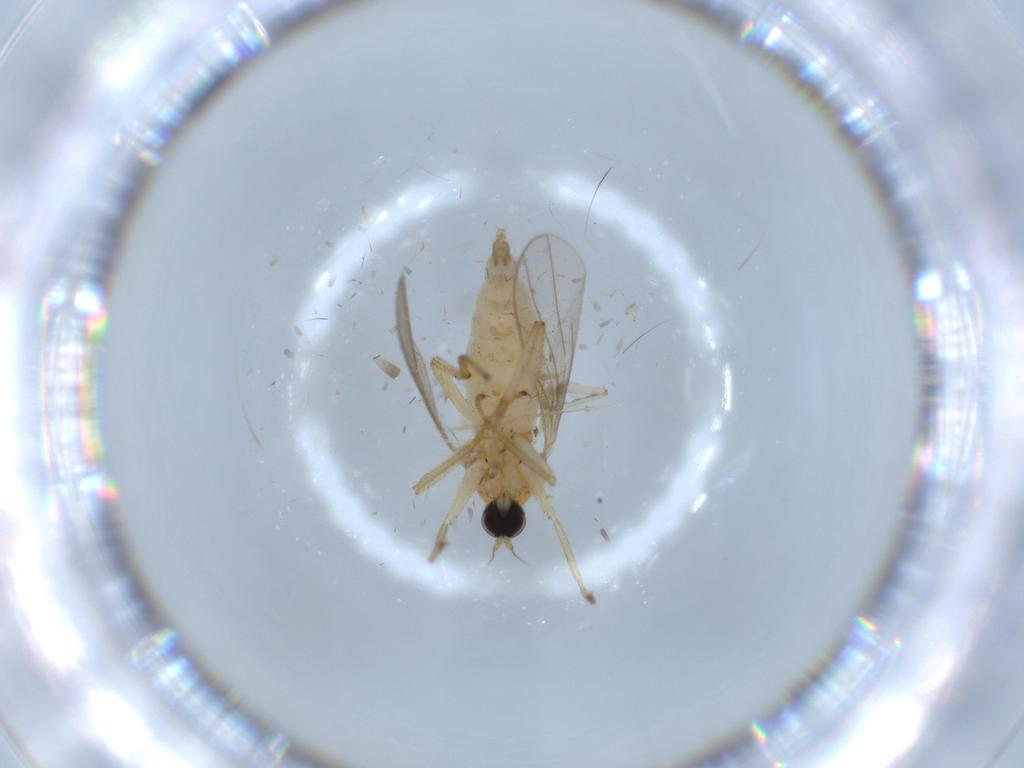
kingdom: Animalia
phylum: Arthropoda
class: Insecta
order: Diptera
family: Hybotidae
